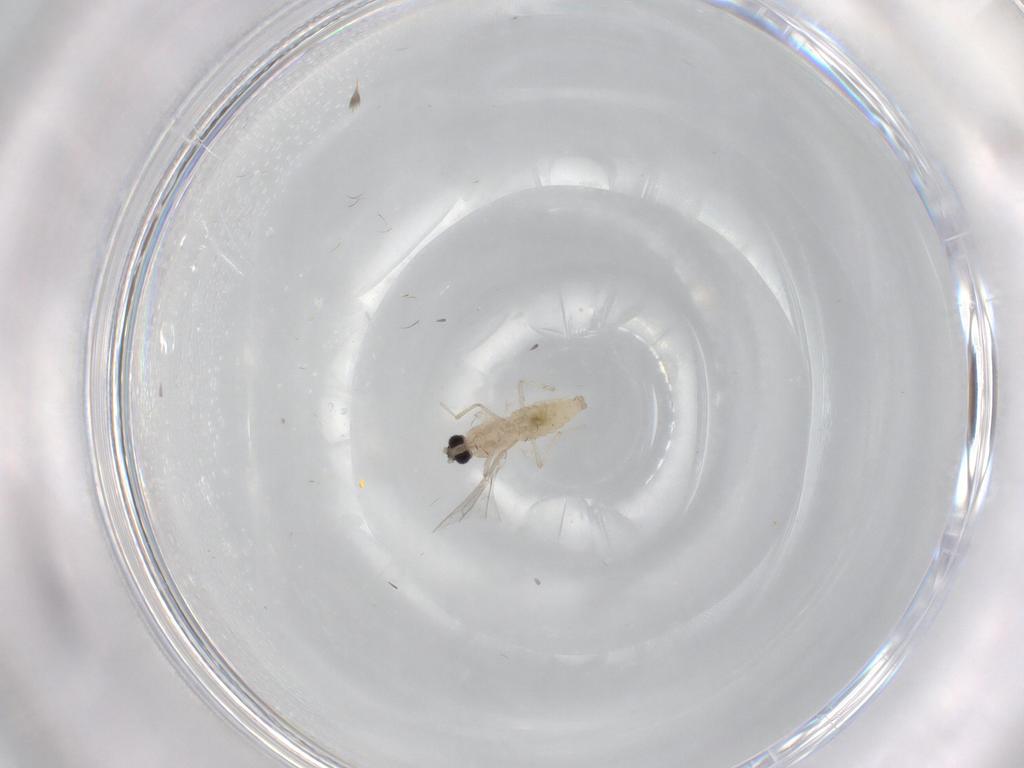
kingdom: Animalia
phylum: Arthropoda
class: Insecta
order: Diptera
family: Cecidomyiidae
